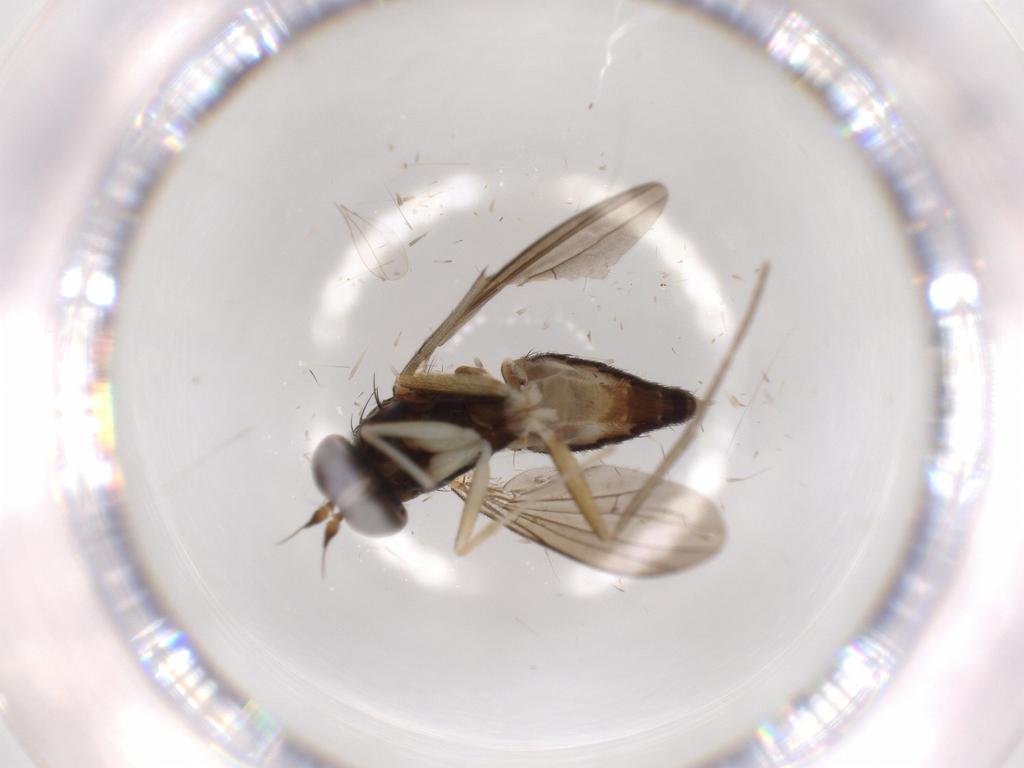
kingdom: Animalia
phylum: Arthropoda
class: Insecta
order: Diptera
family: Dolichopodidae
